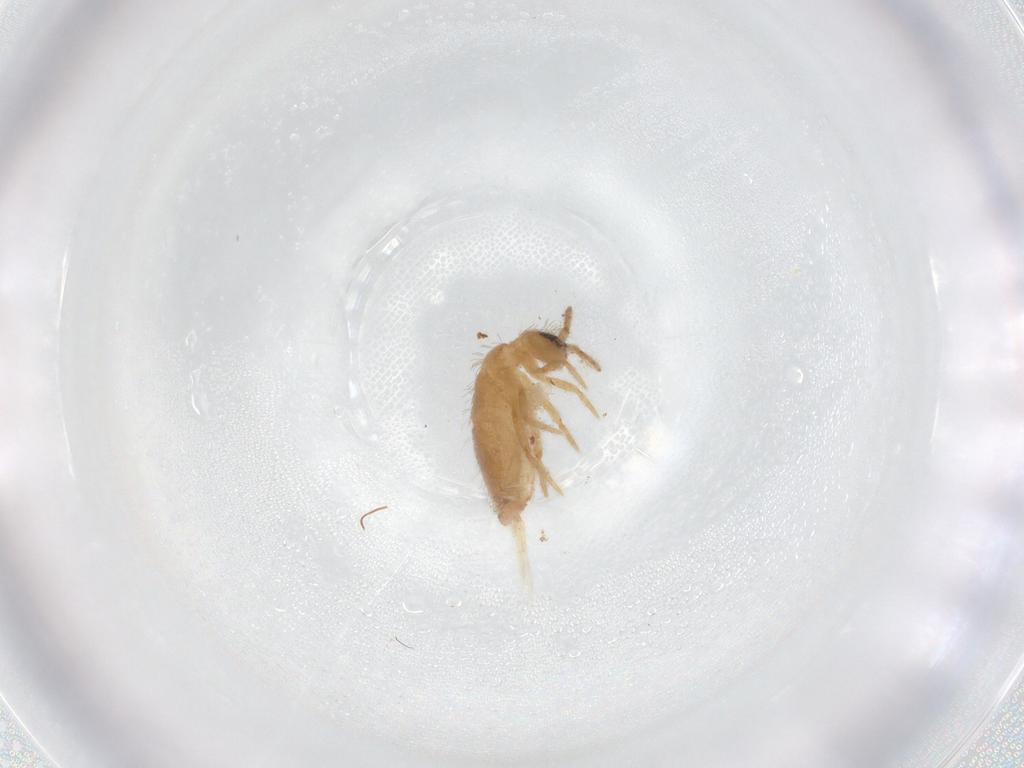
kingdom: Animalia
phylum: Arthropoda
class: Collembola
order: Entomobryomorpha
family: Entomobryidae
